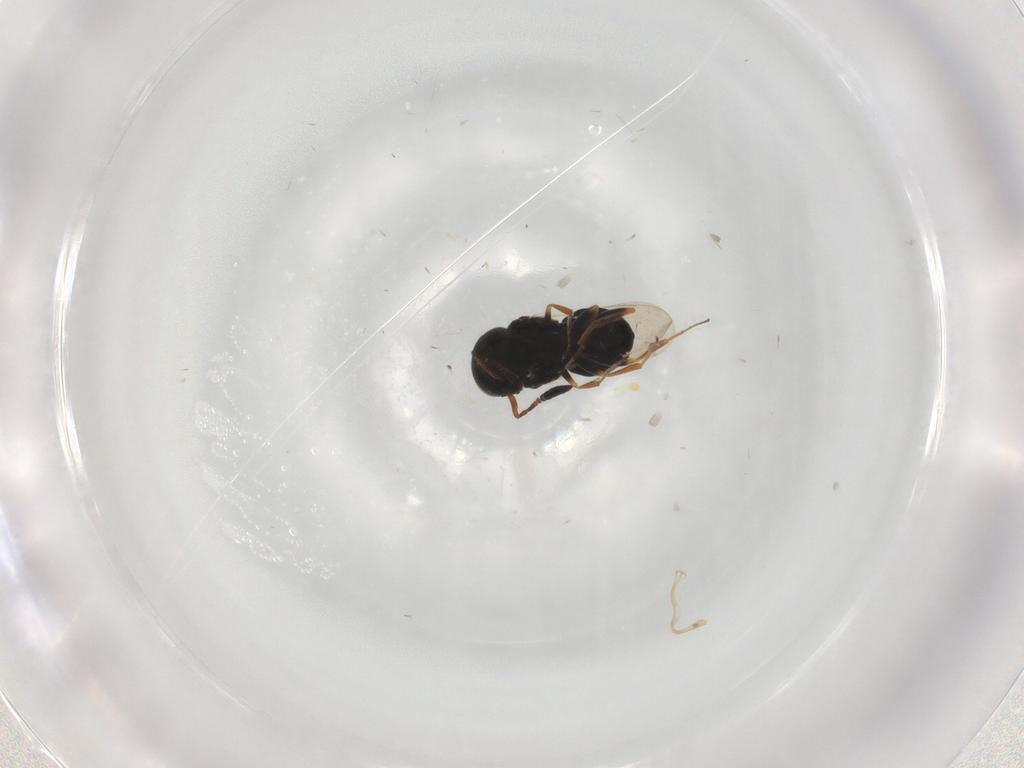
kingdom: Animalia
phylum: Arthropoda
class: Insecta
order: Coleoptera
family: Curculionidae
